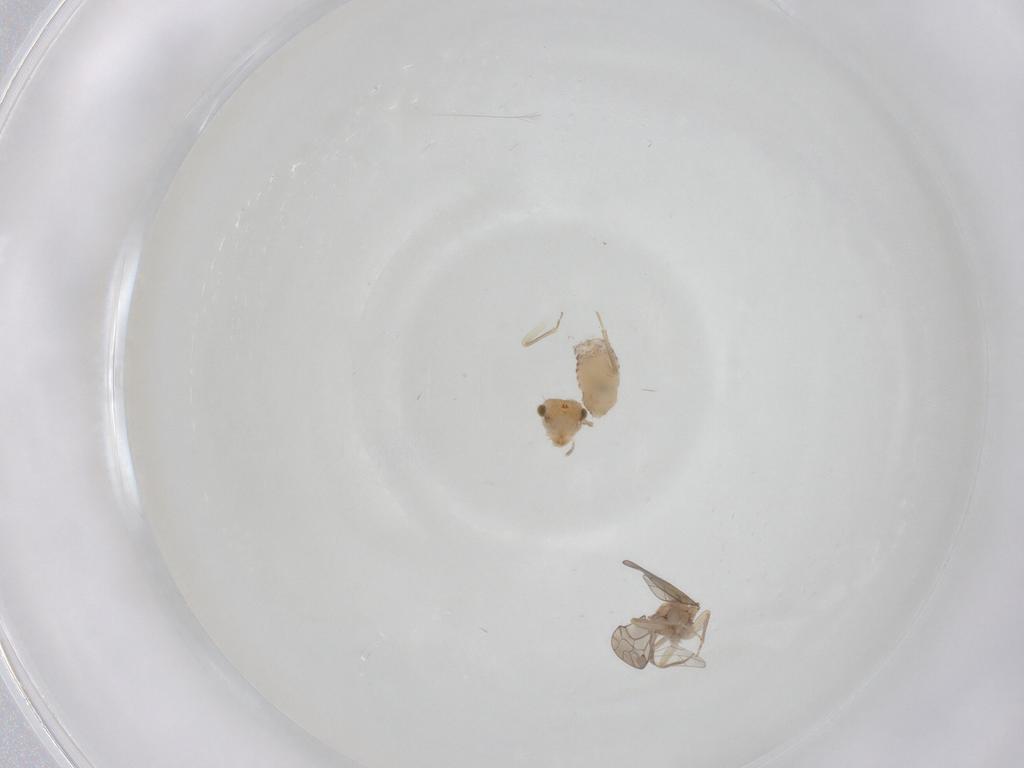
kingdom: Animalia
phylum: Arthropoda
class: Insecta
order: Psocodea
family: Ectopsocidae
